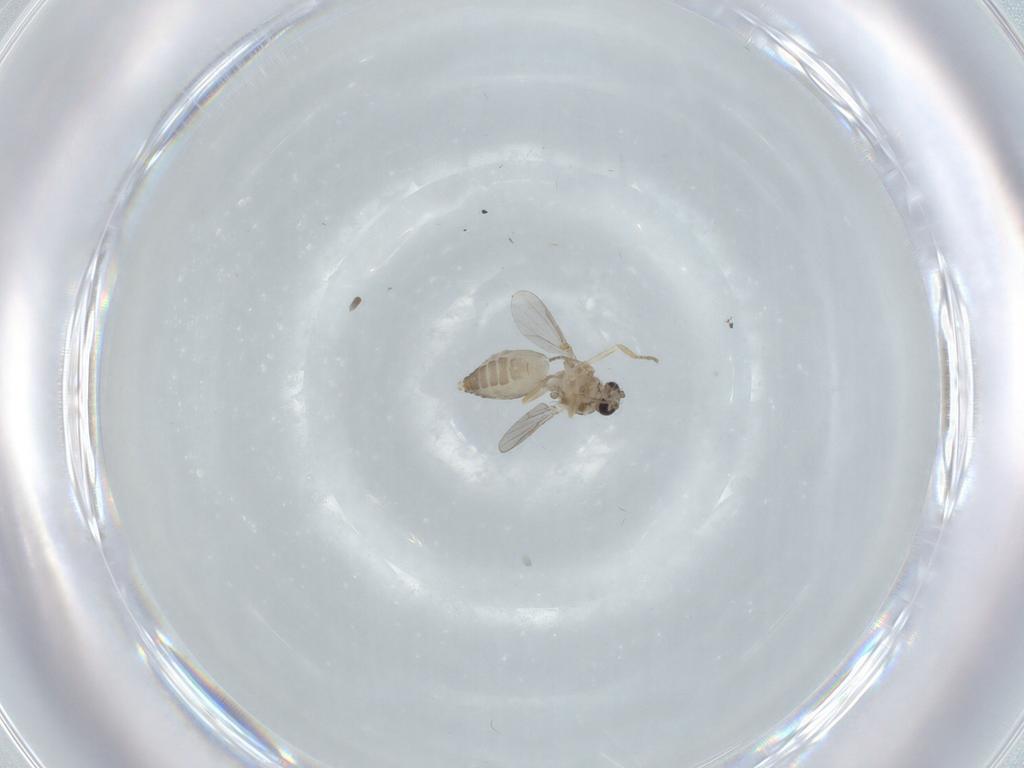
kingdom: Animalia
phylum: Arthropoda
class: Insecta
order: Diptera
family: Ceratopogonidae
